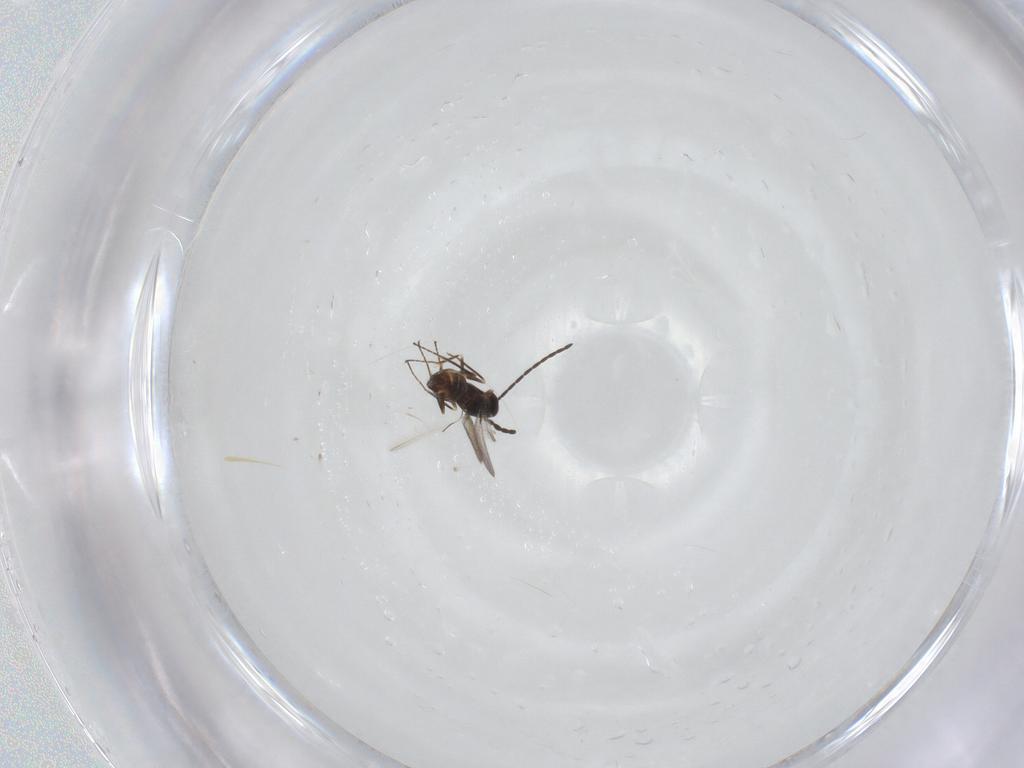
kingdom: Animalia
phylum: Arthropoda
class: Insecta
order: Hymenoptera
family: Mymaridae
